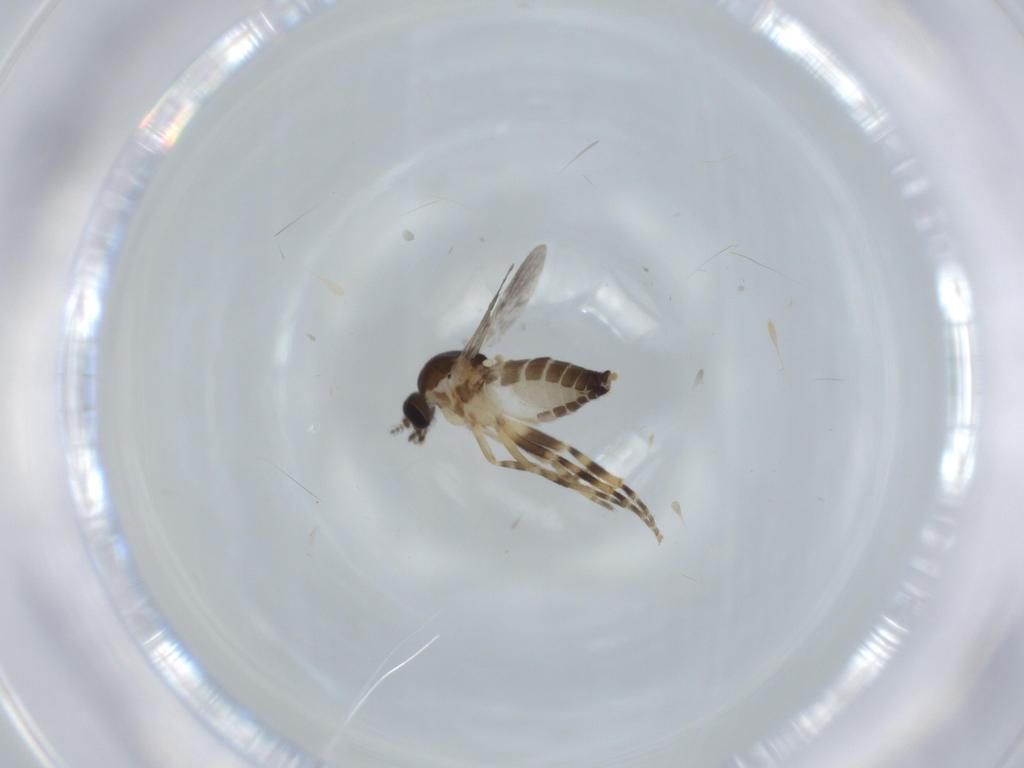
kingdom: Animalia
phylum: Arthropoda
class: Insecta
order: Diptera
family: Ceratopogonidae
